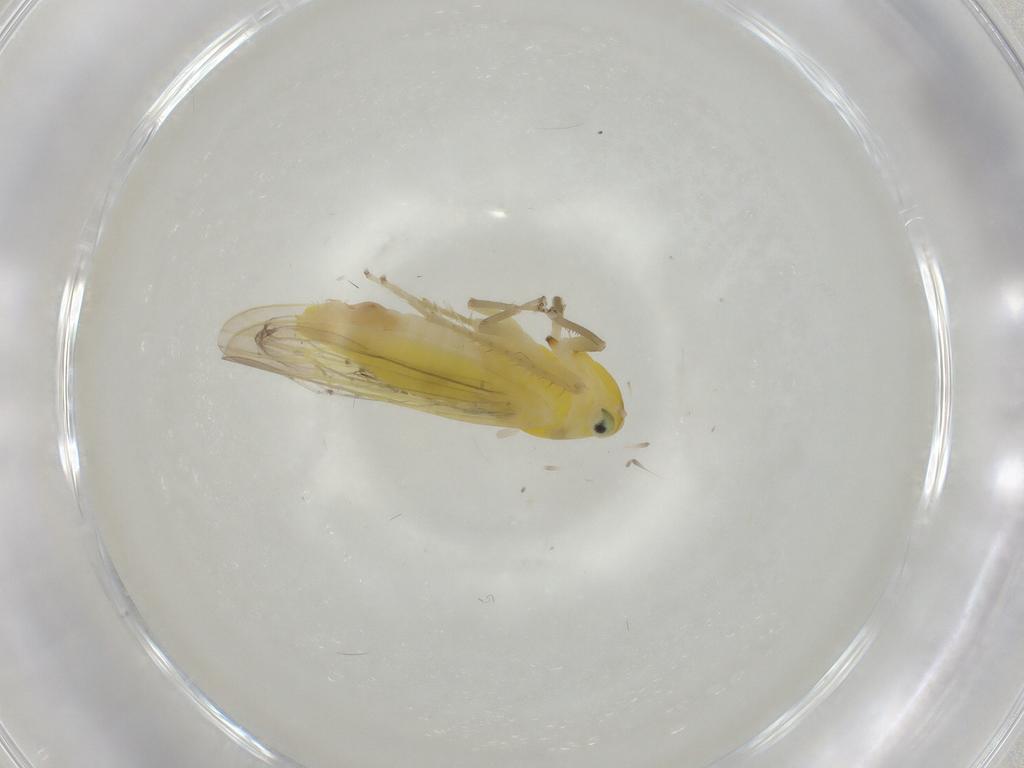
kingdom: Animalia
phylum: Arthropoda
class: Insecta
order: Hemiptera
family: Cicadellidae
